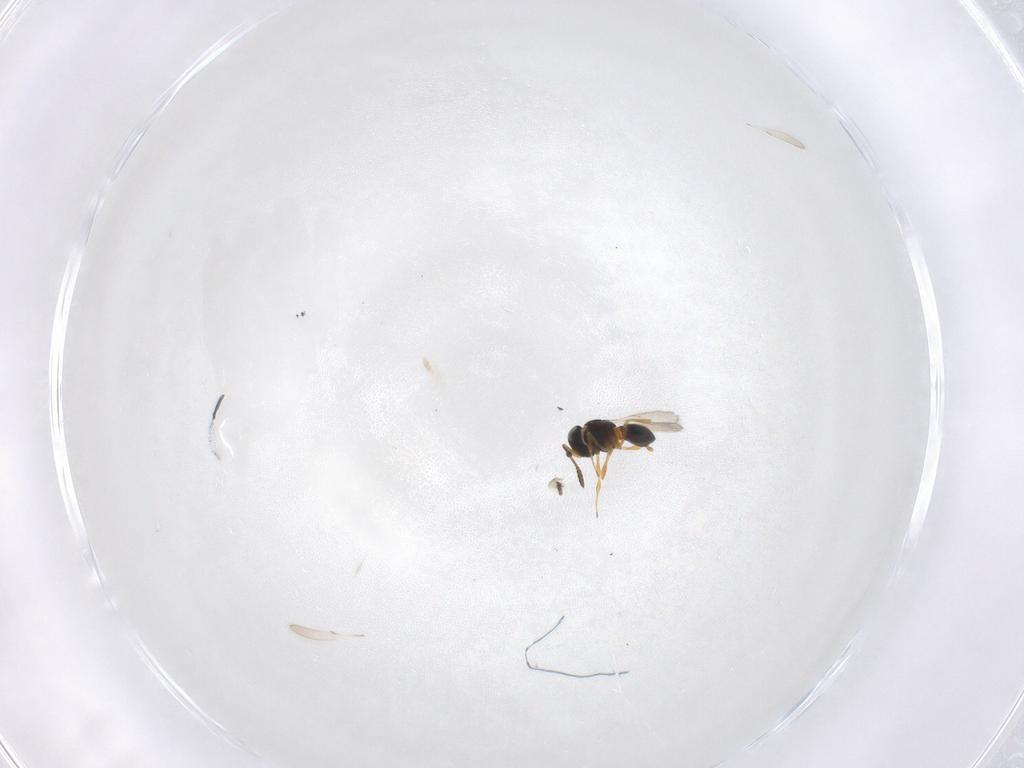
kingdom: Animalia
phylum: Arthropoda
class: Insecta
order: Hymenoptera
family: Scelionidae
